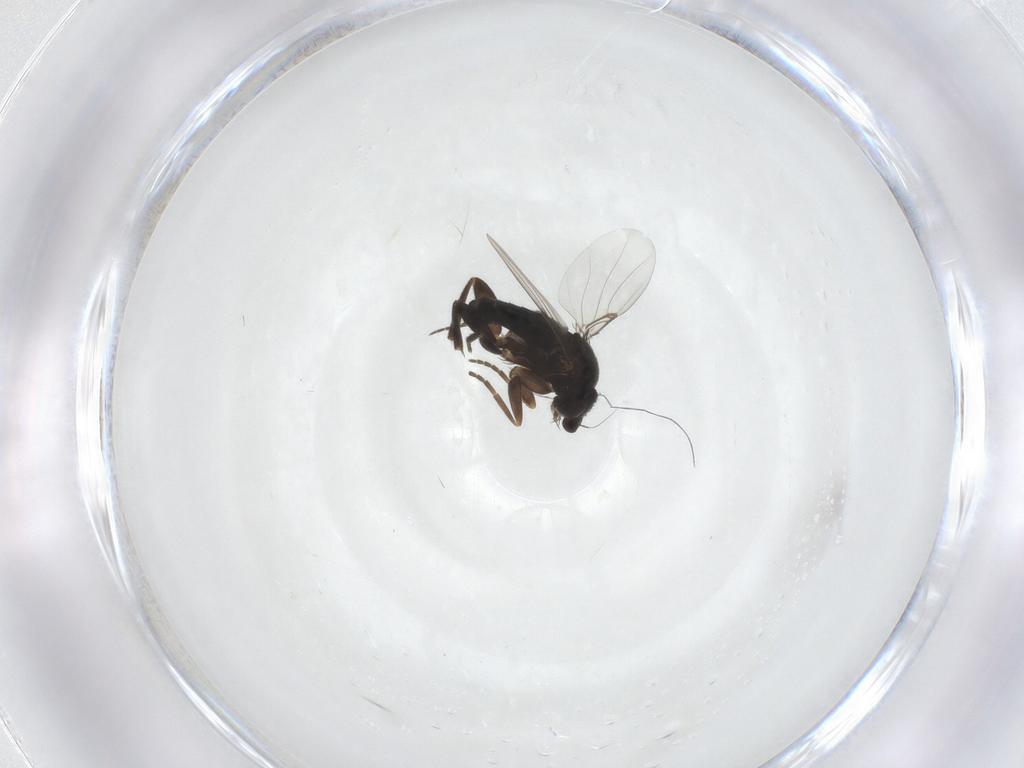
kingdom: Animalia
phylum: Arthropoda
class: Insecta
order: Diptera
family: Phoridae
